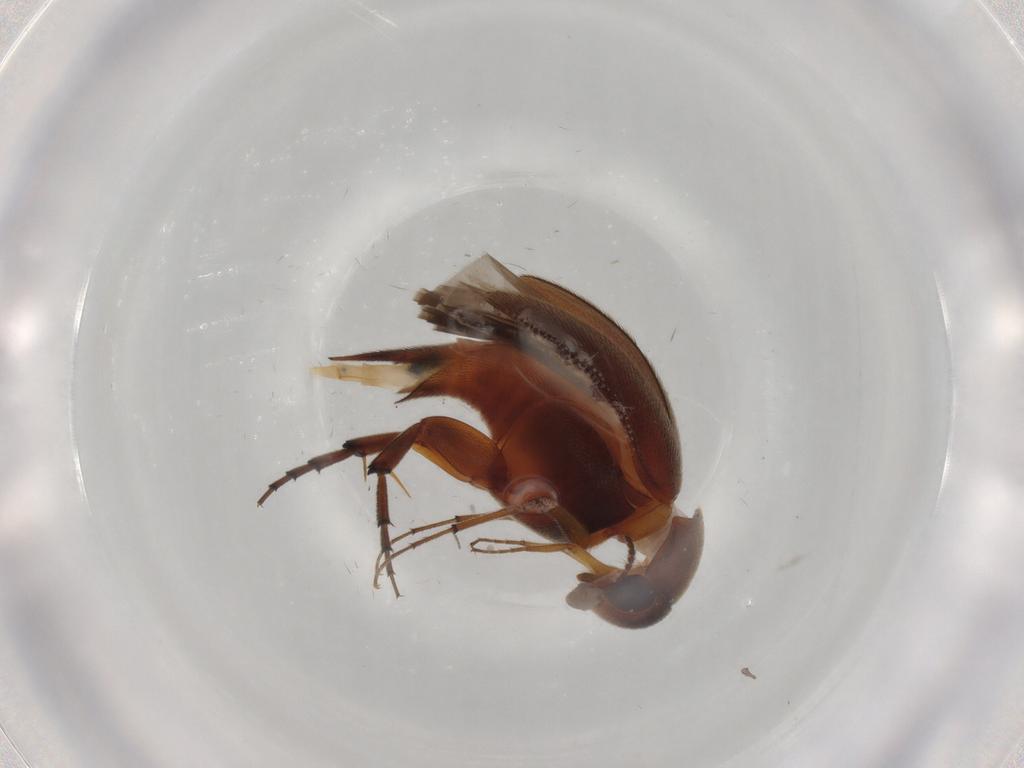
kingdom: Animalia
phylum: Arthropoda
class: Insecta
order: Coleoptera
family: Mordellidae
